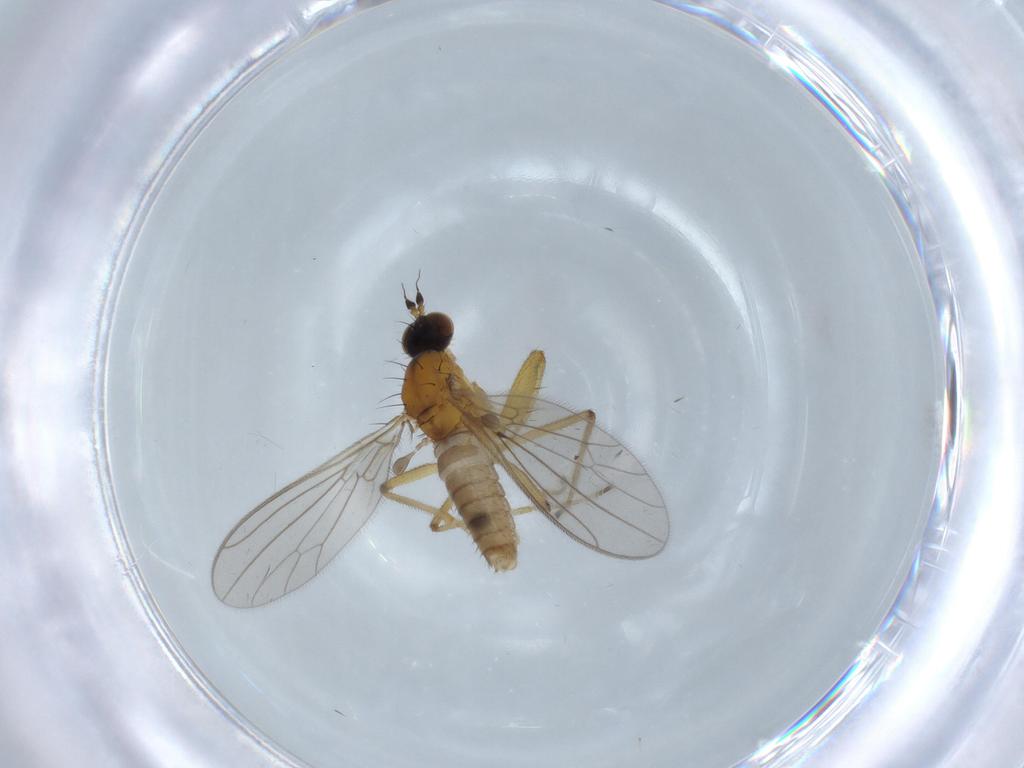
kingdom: Animalia
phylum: Arthropoda
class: Insecta
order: Diptera
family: Empididae
